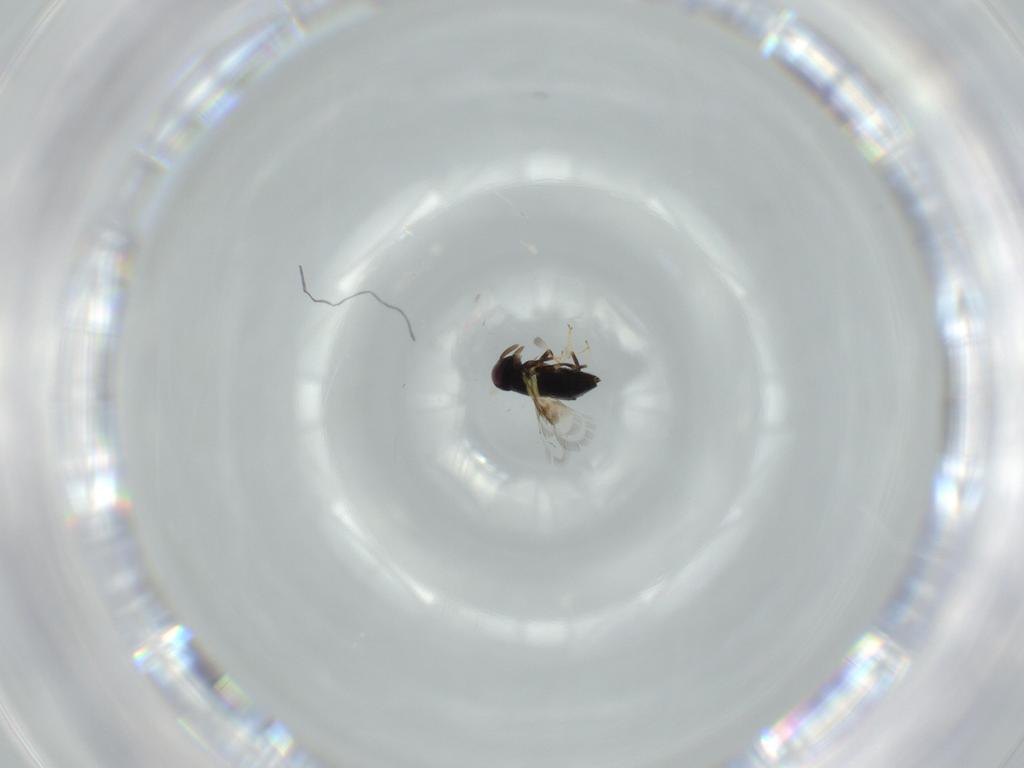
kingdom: Animalia
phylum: Arthropoda
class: Insecta
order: Hymenoptera
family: Signiphoridae
